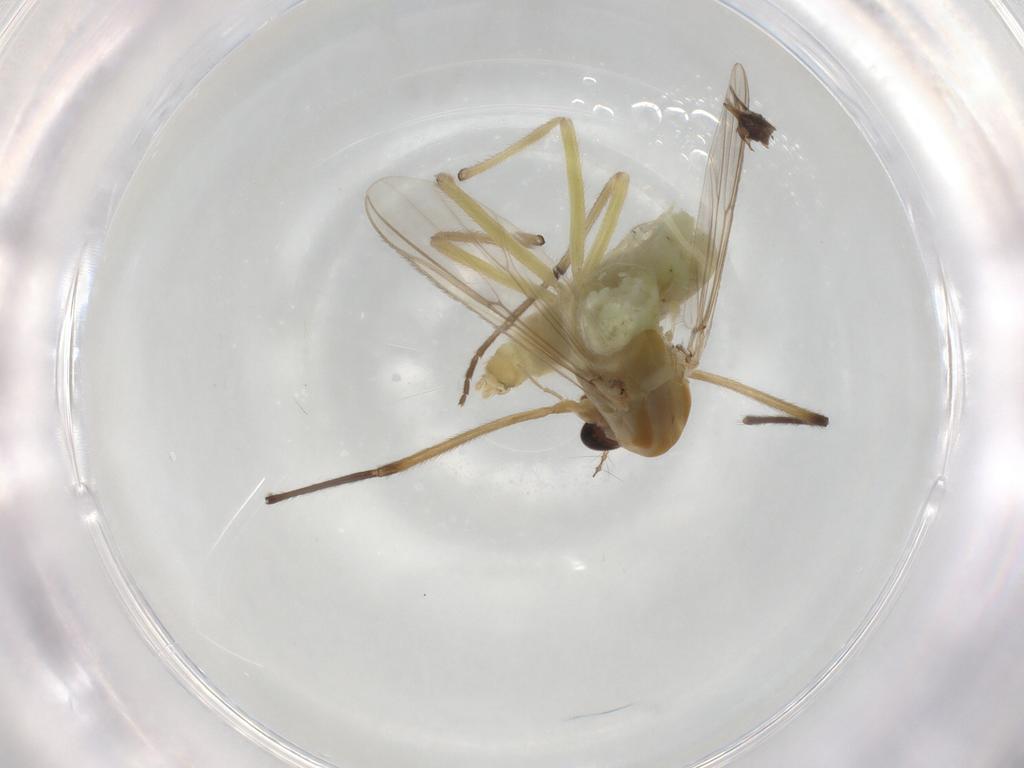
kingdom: Animalia
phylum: Arthropoda
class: Insecta
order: Diptera
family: Chironomidae
